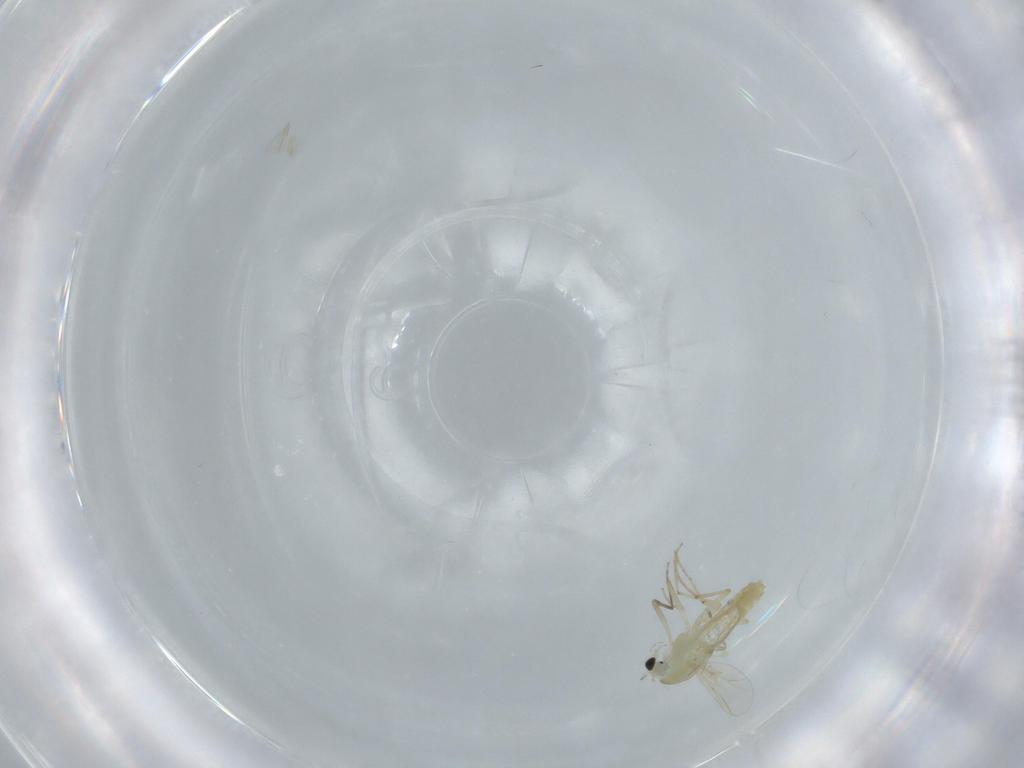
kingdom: Animalia
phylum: Arthropoda
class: Insecta
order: Diptera
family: Chironomidae
